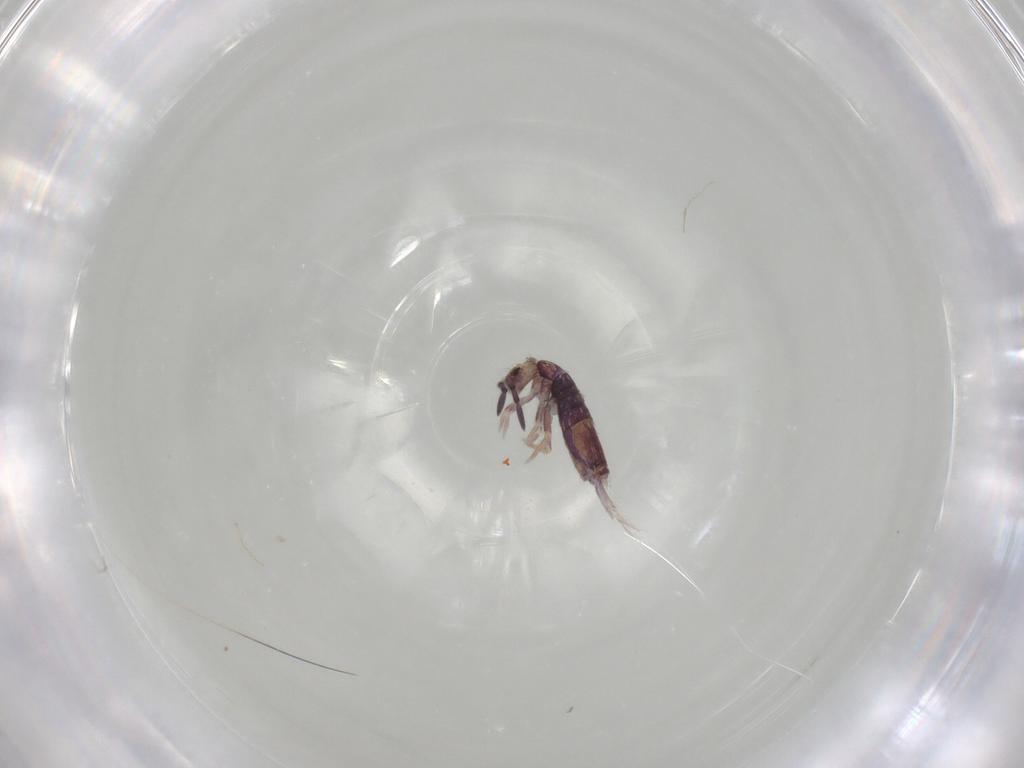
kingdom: Animalia
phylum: Arthropoda
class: Collembola
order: Entomobryomorpha
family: Entomobryidae
